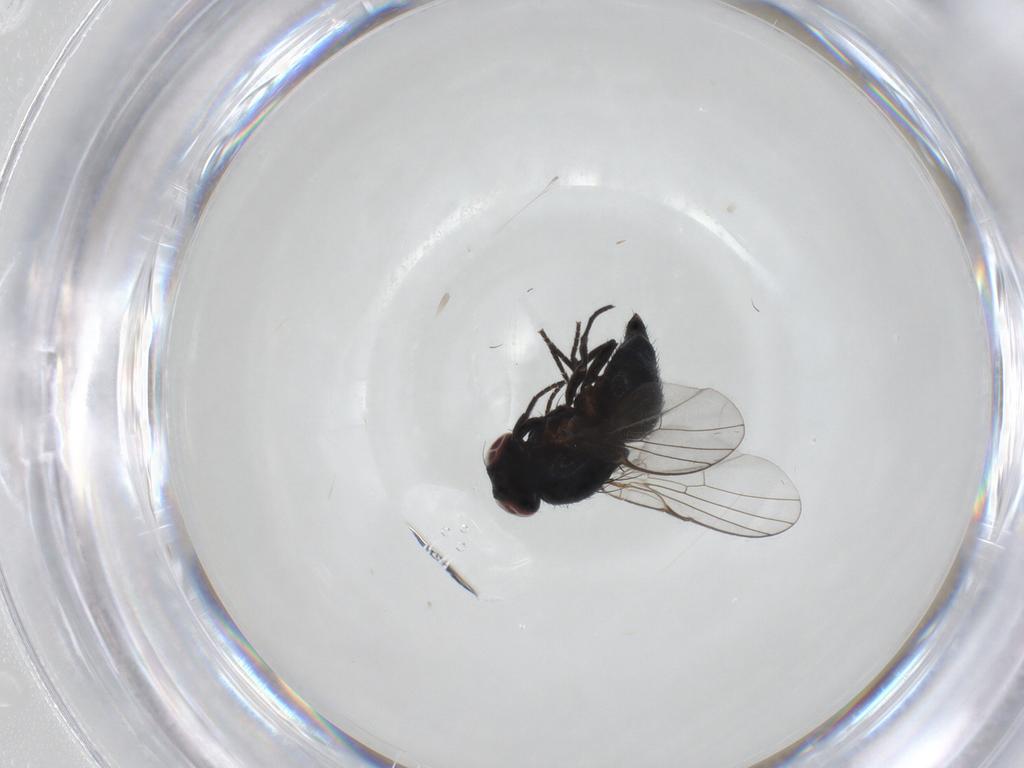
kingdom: Animalia
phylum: Arthropoda
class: Insecta
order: Diptera
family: Agromyzidae
